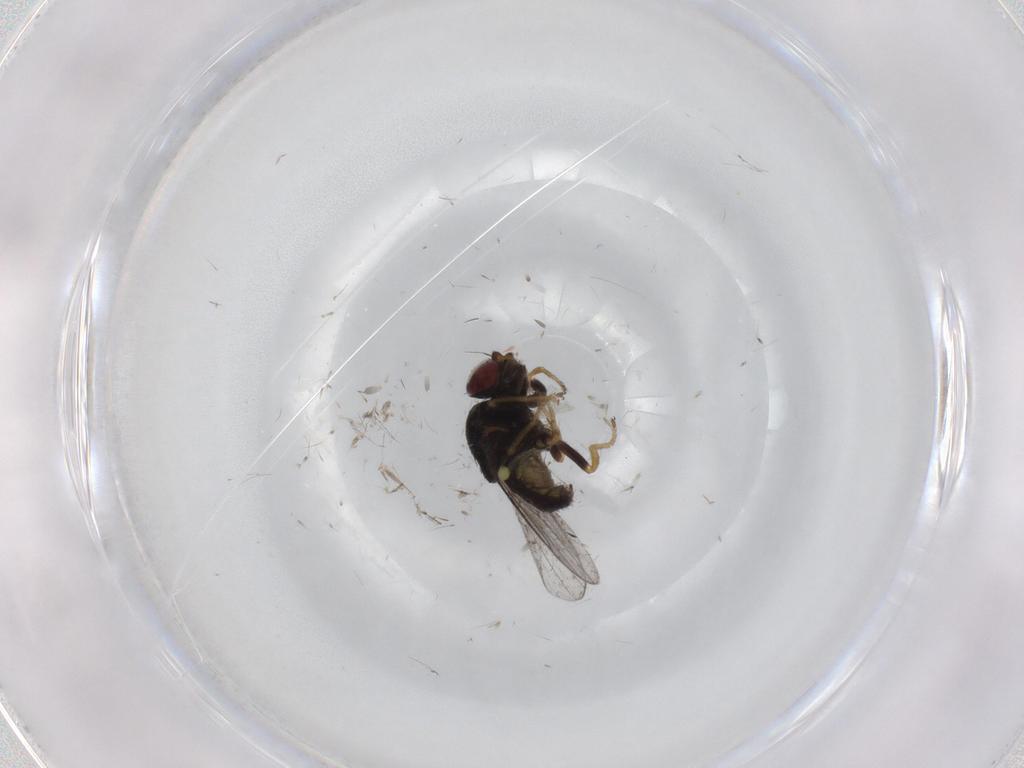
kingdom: Animalia
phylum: Arthropoda
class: Insecta
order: Diptera
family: Chloropidae
